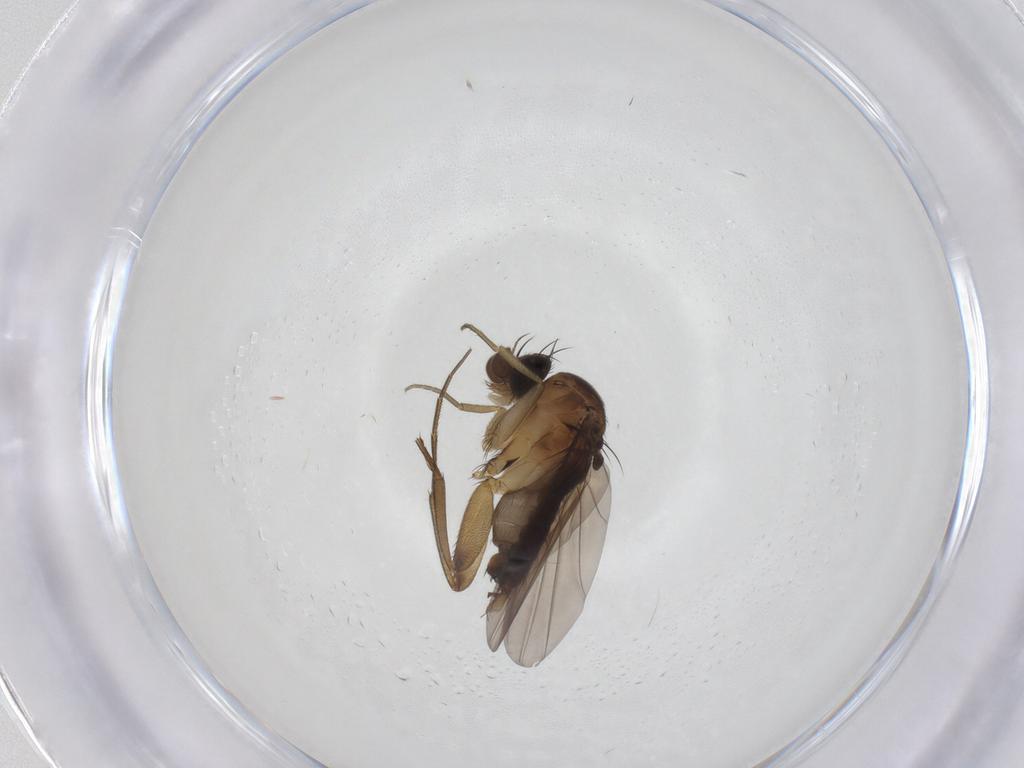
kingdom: Animalia
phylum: Arthropoda
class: Insecta
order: Diptera
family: Phoridae
